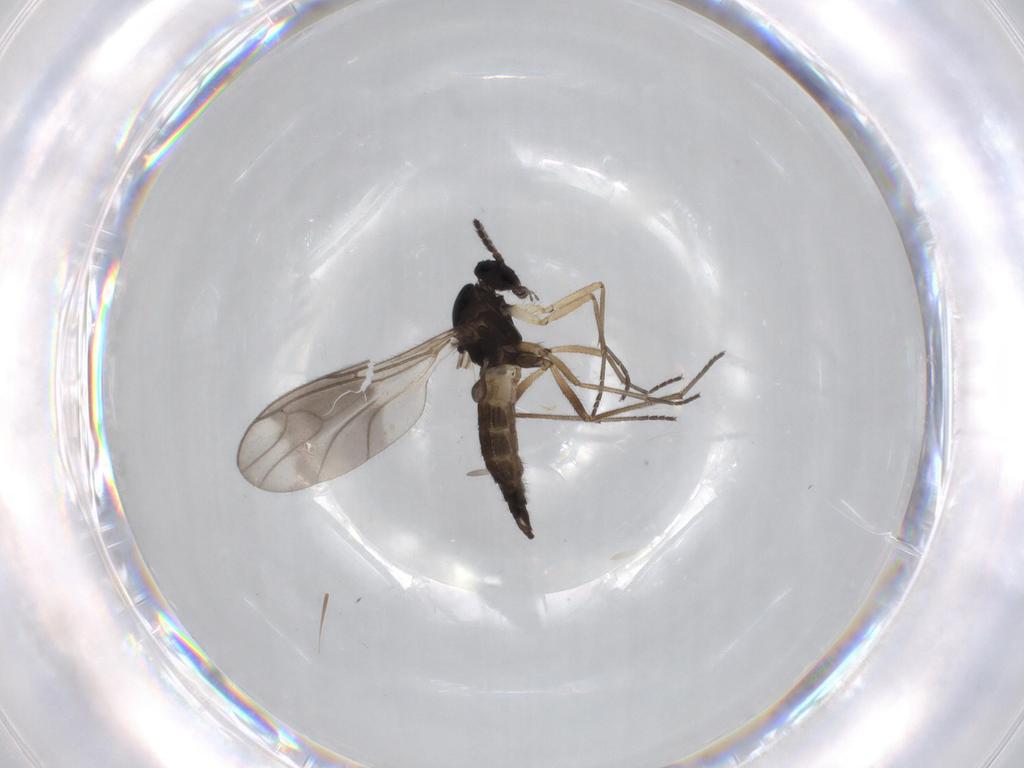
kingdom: Animalia
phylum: Arthropoda
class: Insecta
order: Diptera
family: Sciaridae
